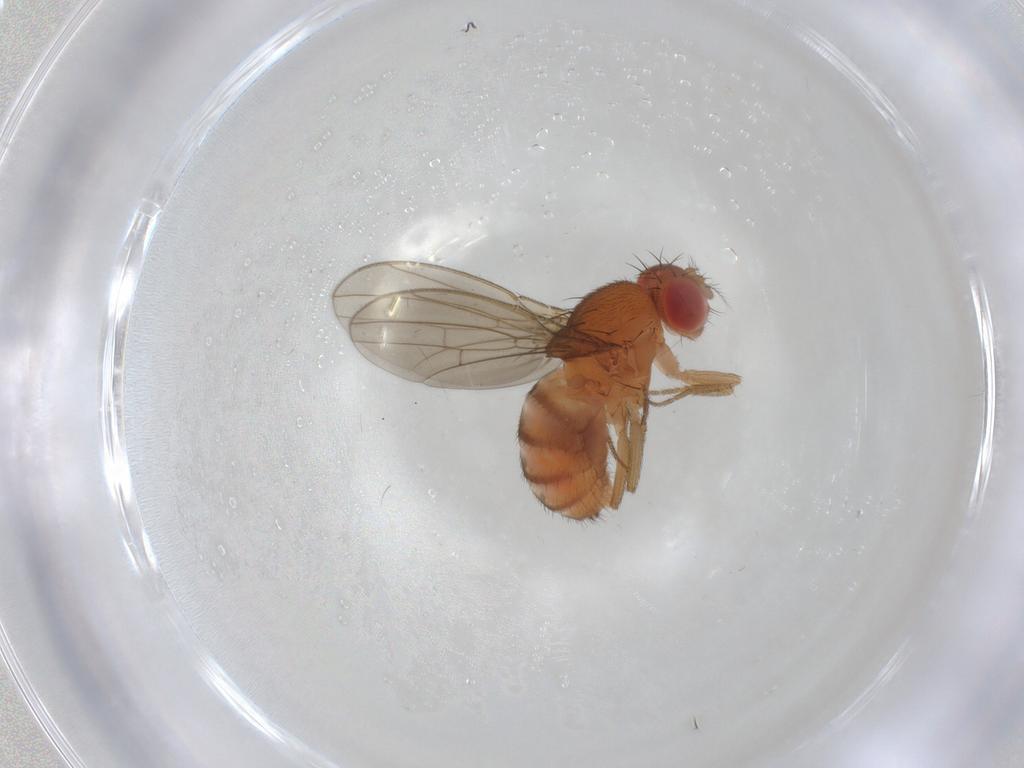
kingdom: Animalia
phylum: Arthropoda
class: Insecta
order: Diptera
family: Drosophilidae
